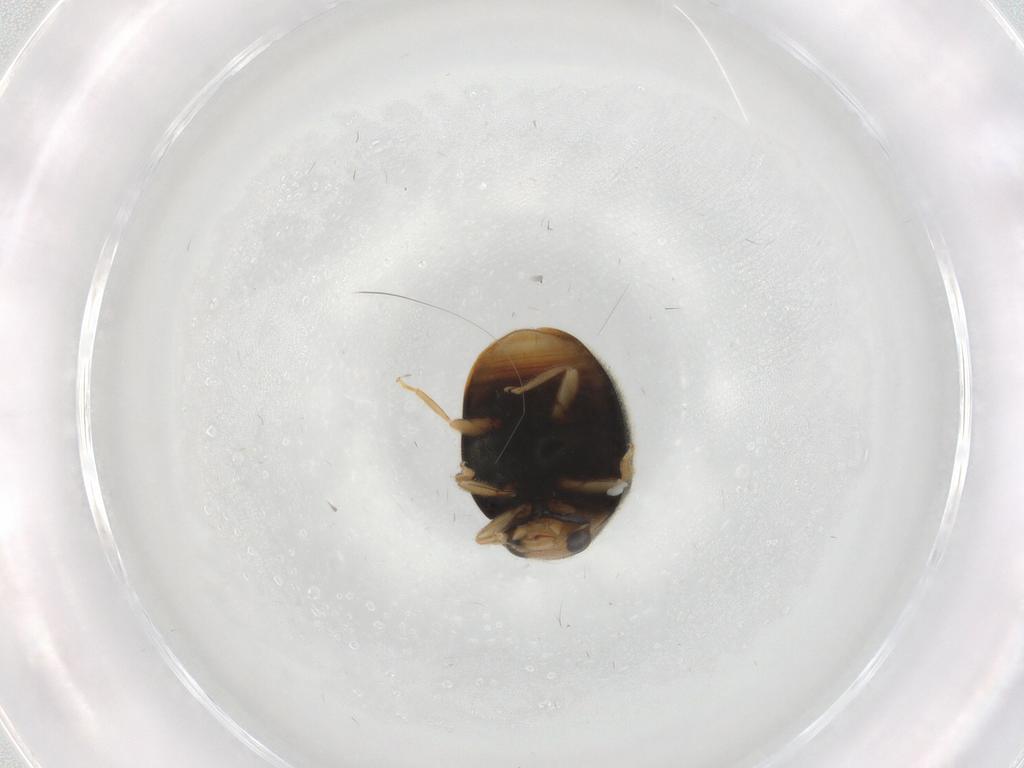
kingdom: Animalia
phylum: Arthropoda
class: Insecta
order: Coleoptera
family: Coccinellidae
